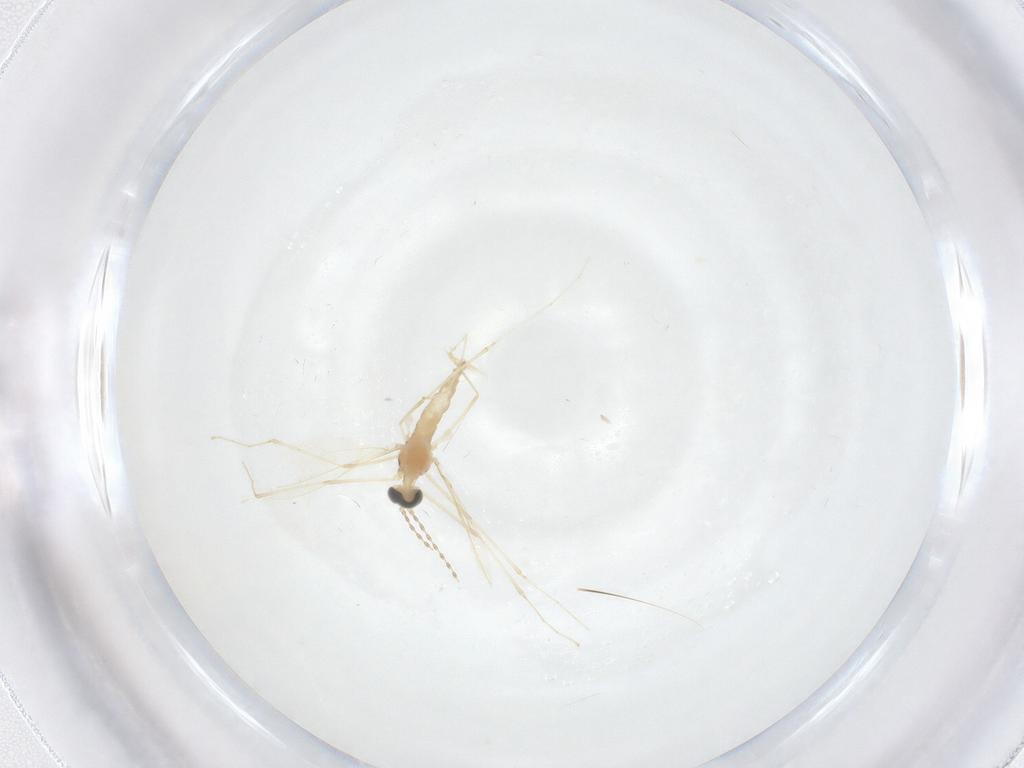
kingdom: Animalia
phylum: Arthropoda
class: Insecta
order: Diptera
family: Cecidomyiidae
